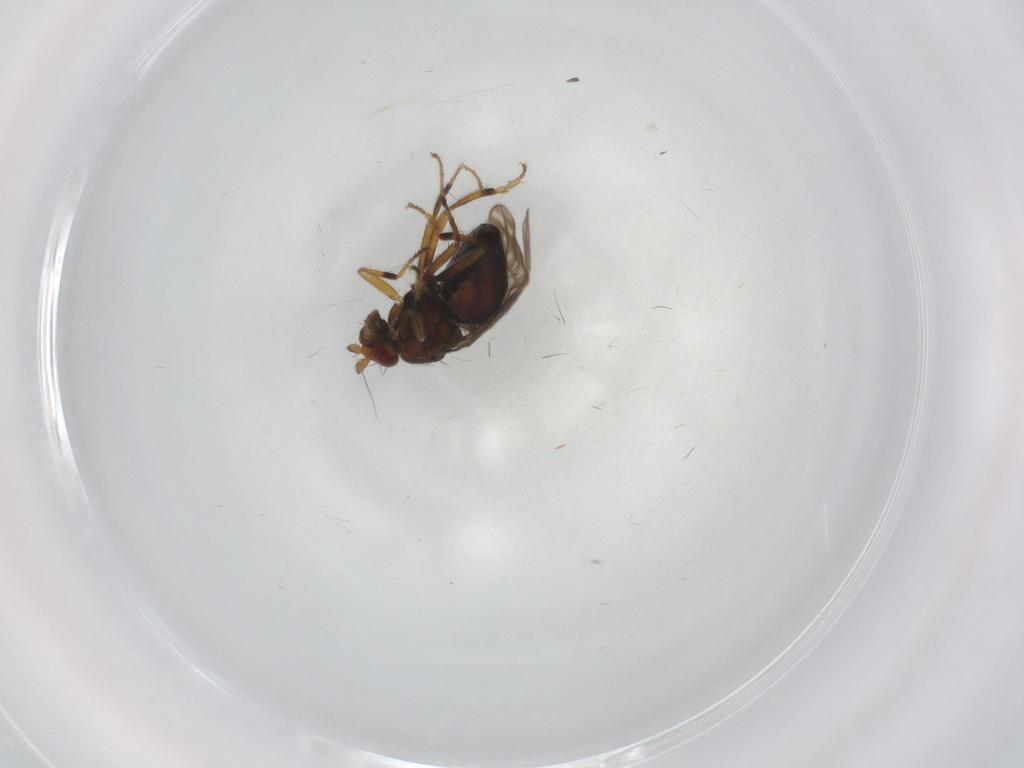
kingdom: Animalia
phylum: Arthropoda
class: Insecta
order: Diptera
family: Sphaeroceridae
